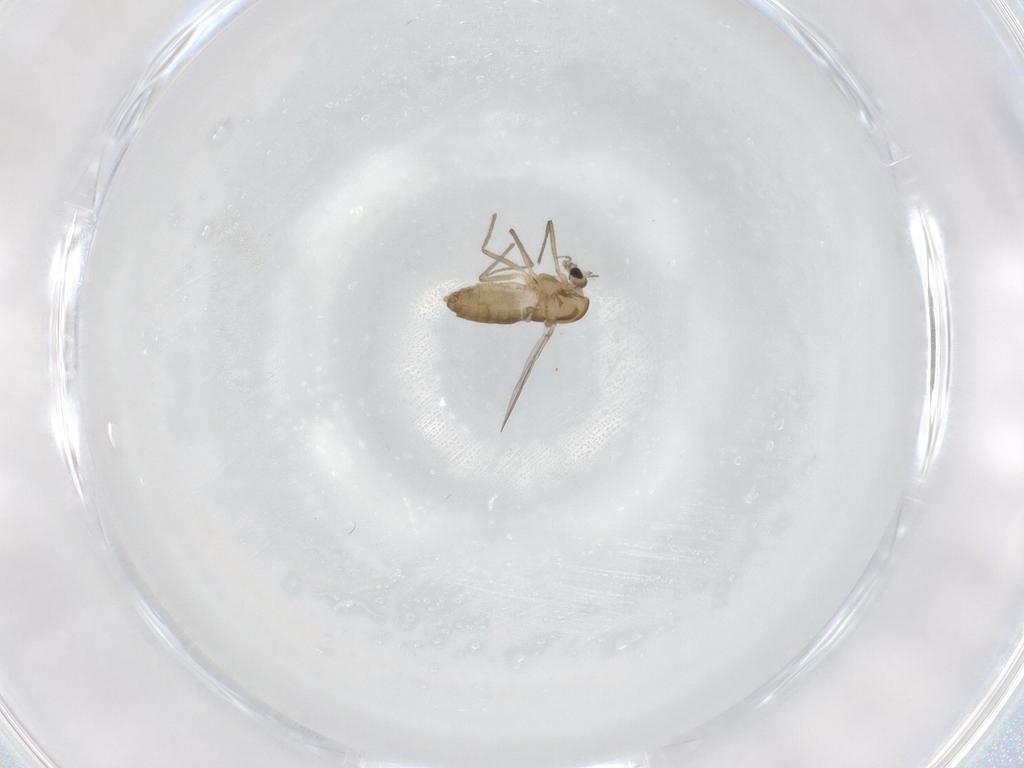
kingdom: Animalia
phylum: Arthropoda
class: Insecta
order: Diptera
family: Chironomidae
